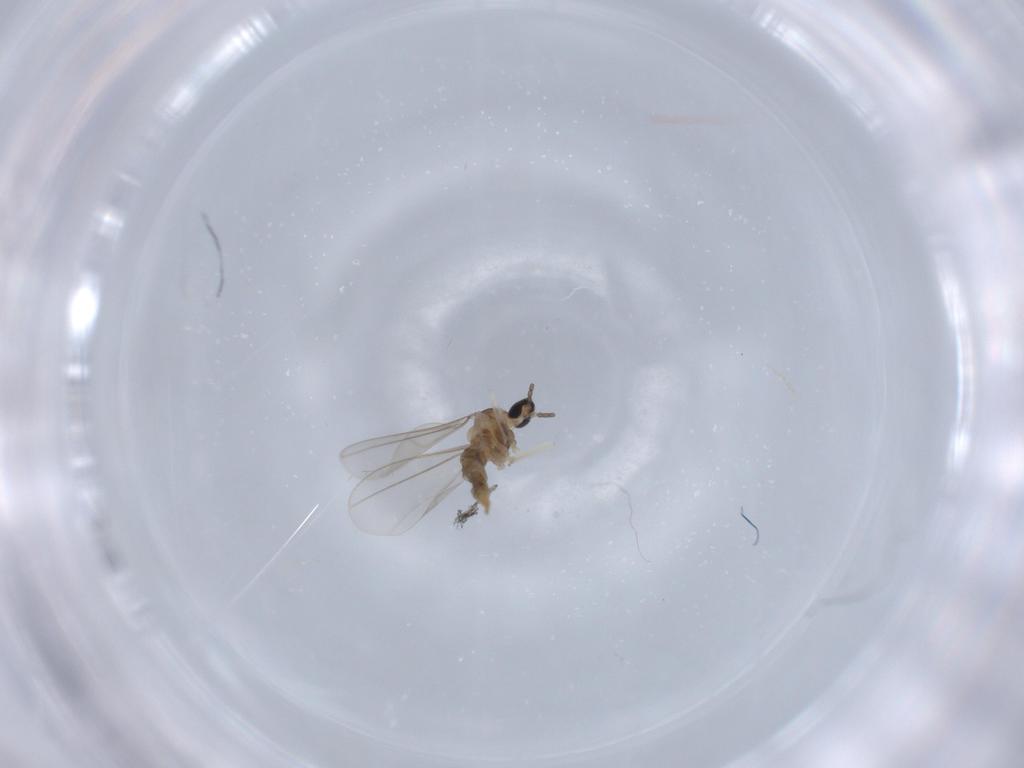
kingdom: Animalia
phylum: Arthropoda
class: Insecta
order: Diptera
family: Cecidomyiidae
